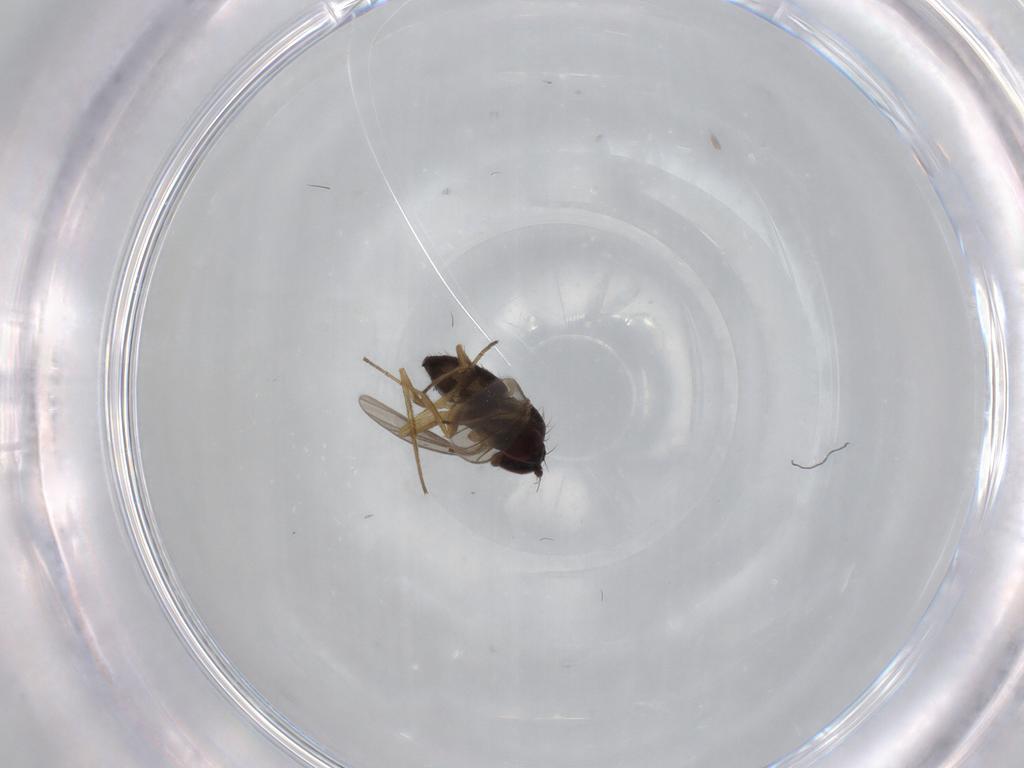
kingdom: Animalia
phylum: Arthropoda
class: Insecta
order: Diptera
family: Dolichopodidae
